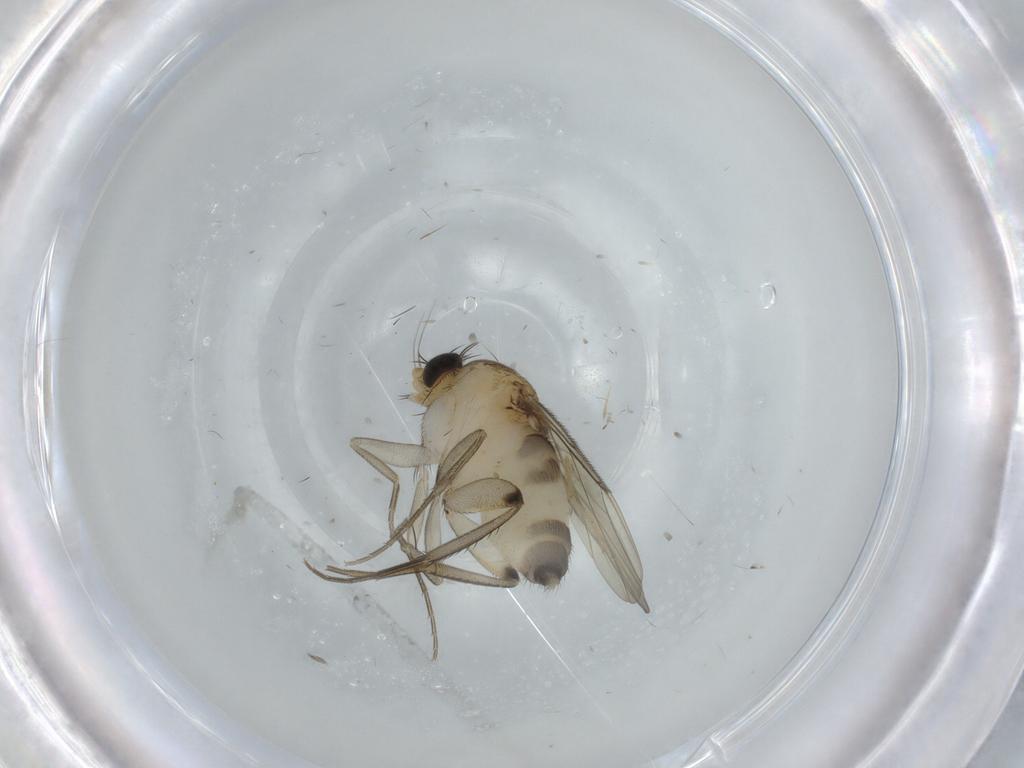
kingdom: Animalia
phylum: Arthropoda
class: Insecta
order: Diptera
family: Phoridae
